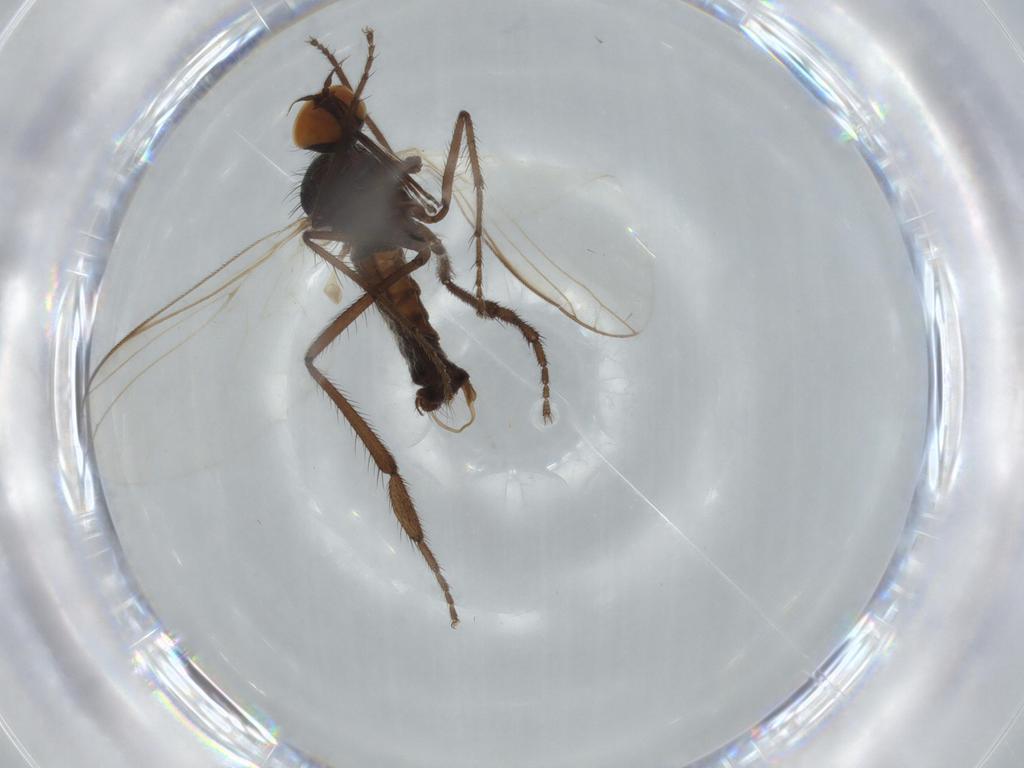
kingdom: Animalia
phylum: Arthropoda
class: Insecta
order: Diptera
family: Empididae
